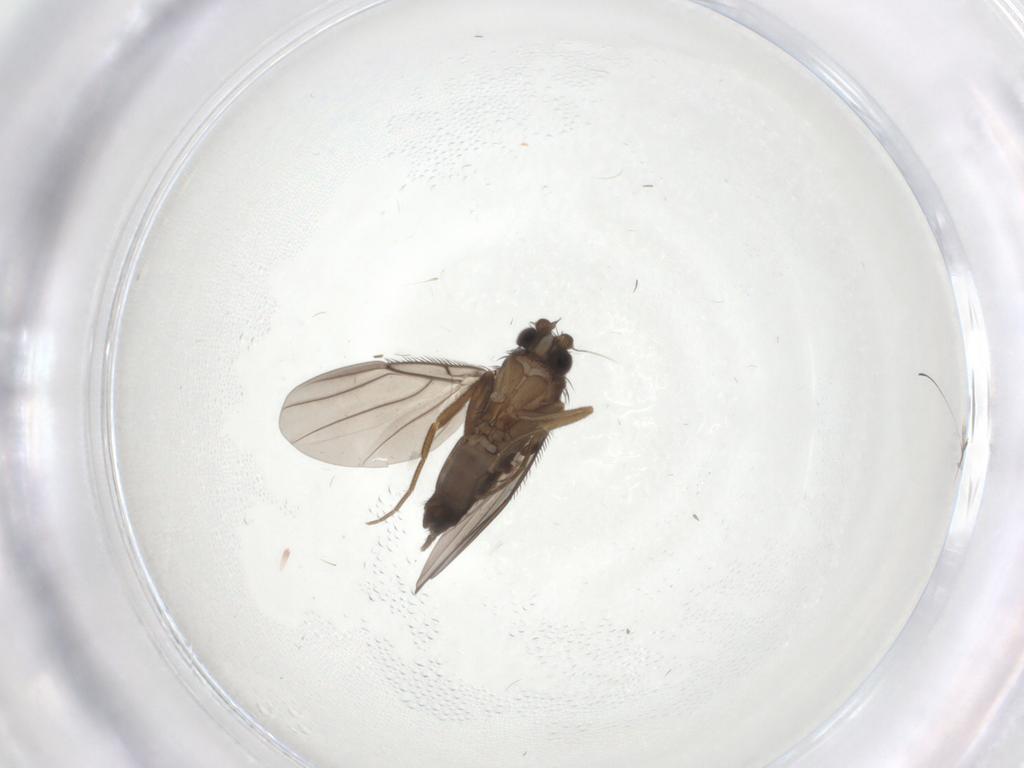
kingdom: Animalia
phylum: Arthropoda
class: Insecta
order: Diptera
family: Phoridae
